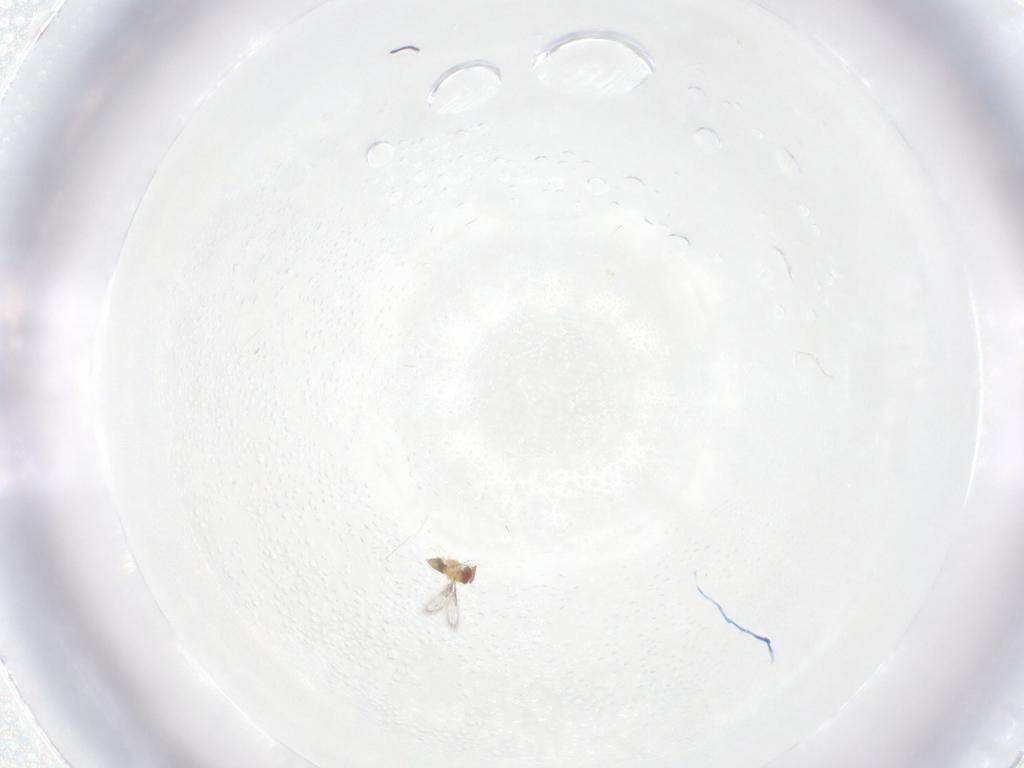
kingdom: Animalia
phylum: Arthropoda
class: Insecta
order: Hymenoptera
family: Trichogrammatidae
